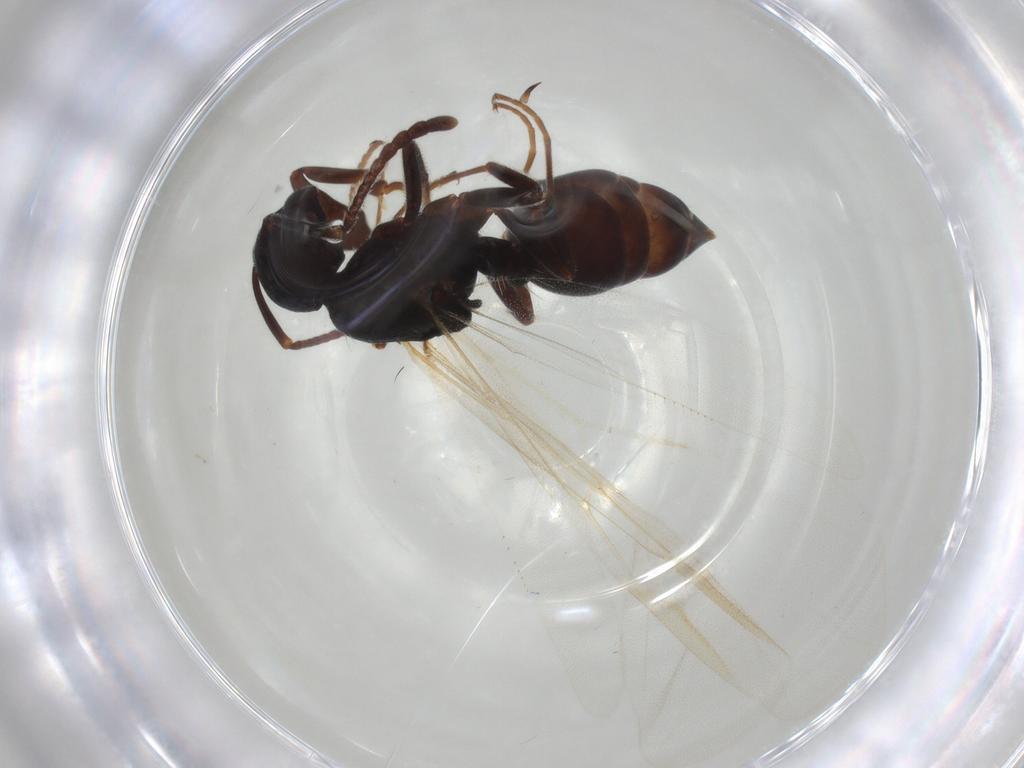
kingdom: Animalia
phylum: Arthropoda
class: Insecta
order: Hymenoptera
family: Formicidae
